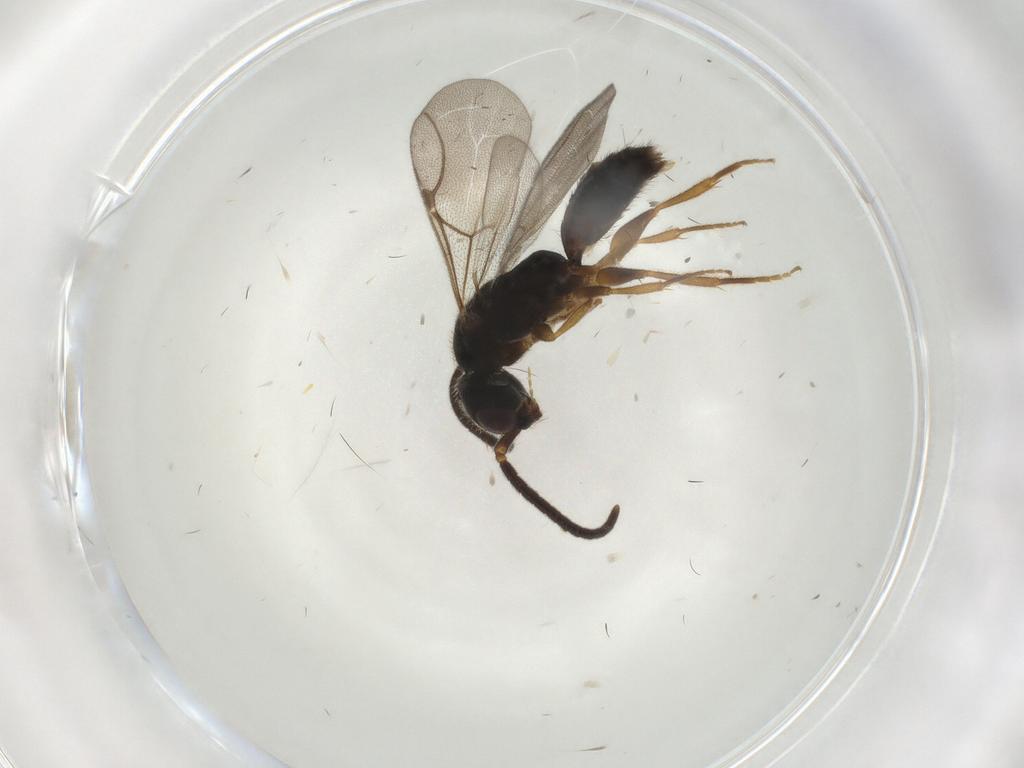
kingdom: Animalia
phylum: Arthropoda
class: Insecta
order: Hymenoptera
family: Bethylidae
